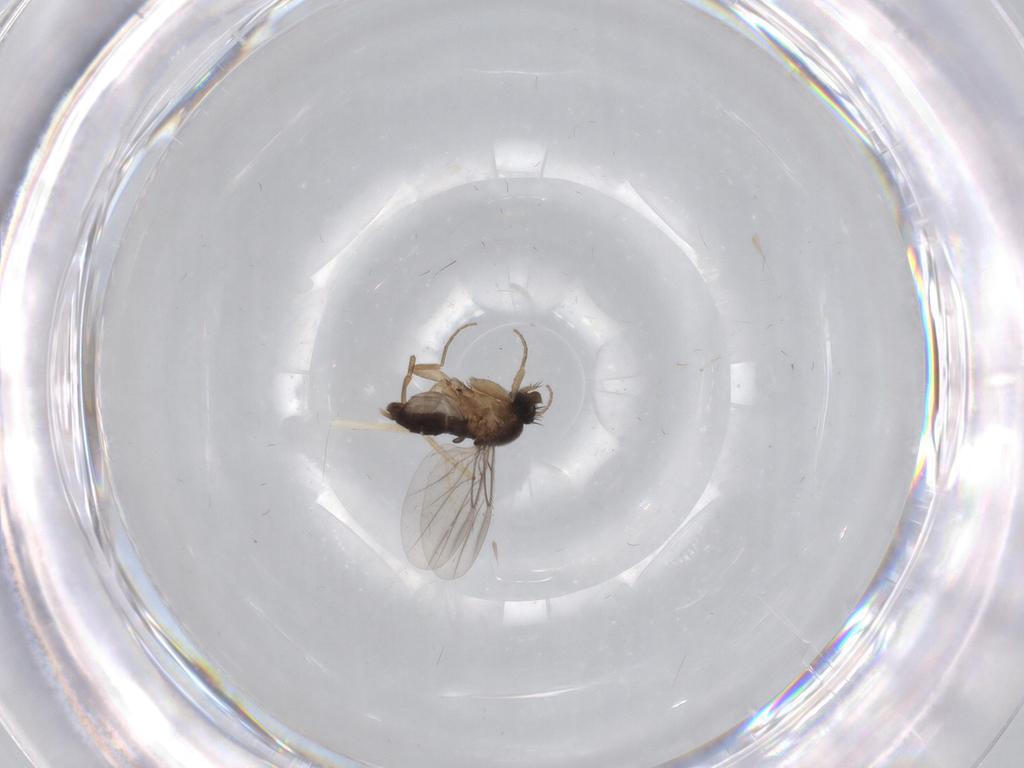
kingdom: Animalia
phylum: Arthropoda
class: Insecta
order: Diptera
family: Phoridae
